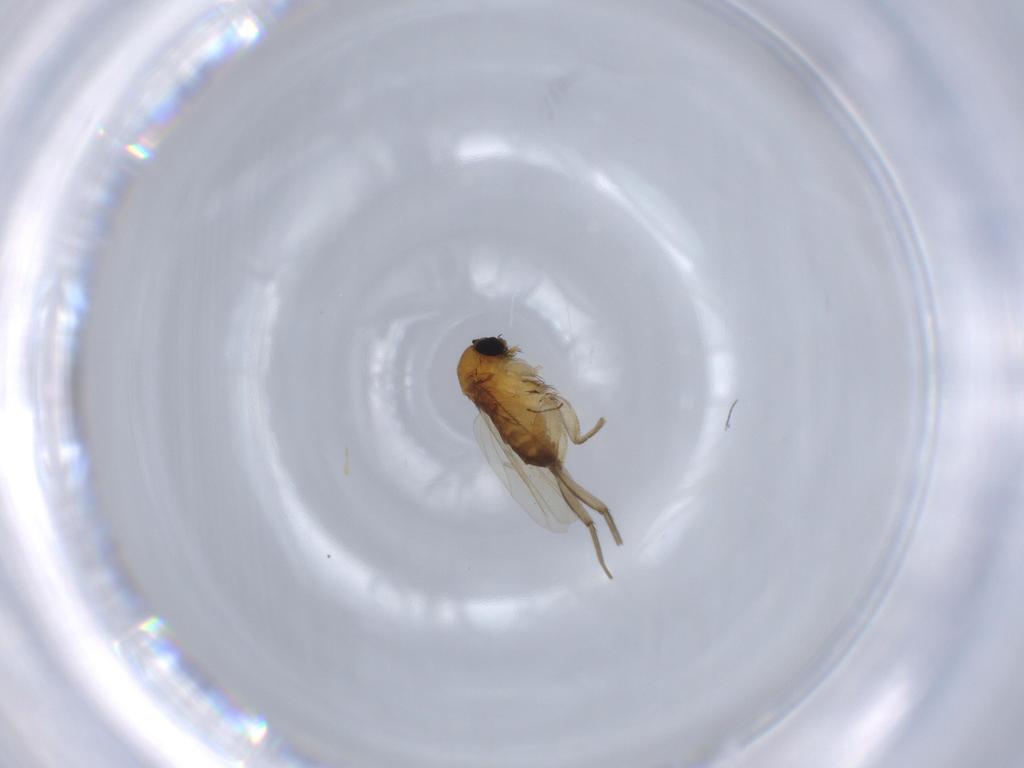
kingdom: Animalia
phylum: Arthropoda
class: Insecta
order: Diptera
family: Phoridae
